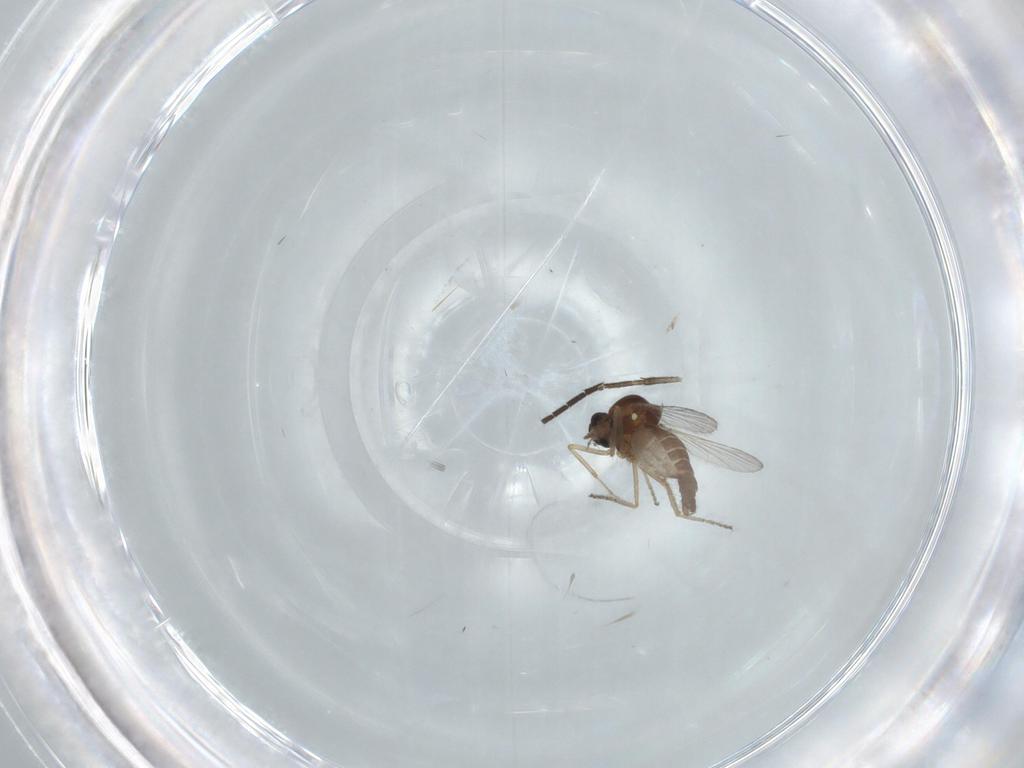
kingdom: Animalia
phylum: Arthropoda
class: Insecta
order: Diptera
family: Ceratopogonidae
